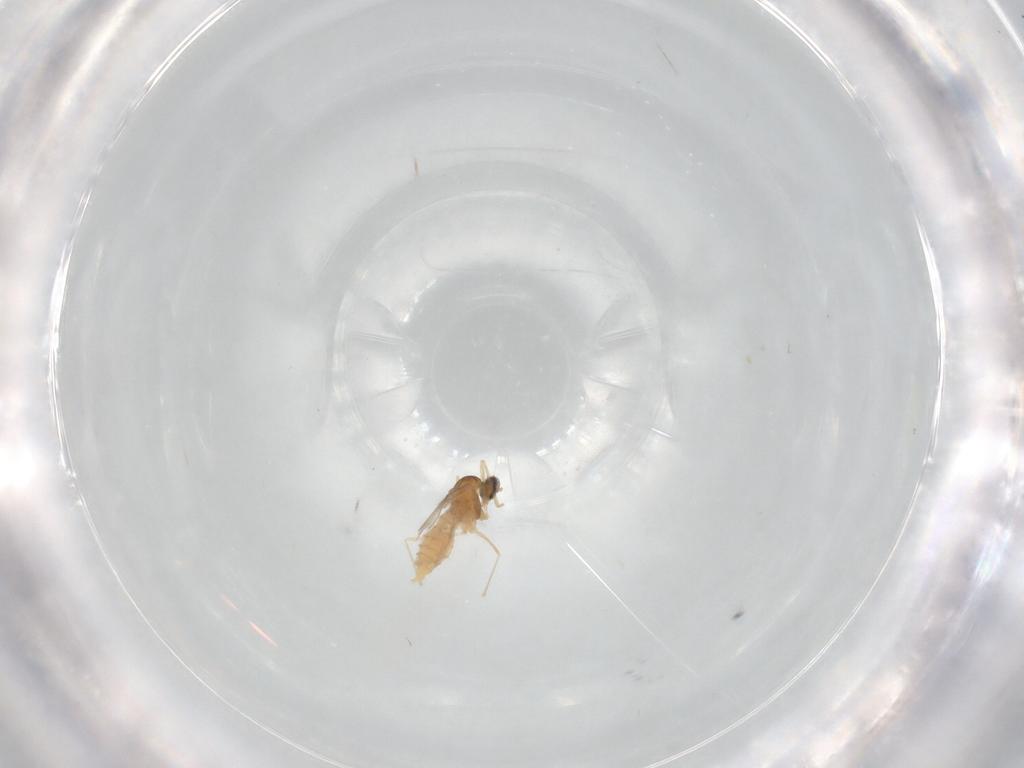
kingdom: Animalia
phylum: Arthropoda
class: Insecta
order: Diptera
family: Cecidomyiidae
